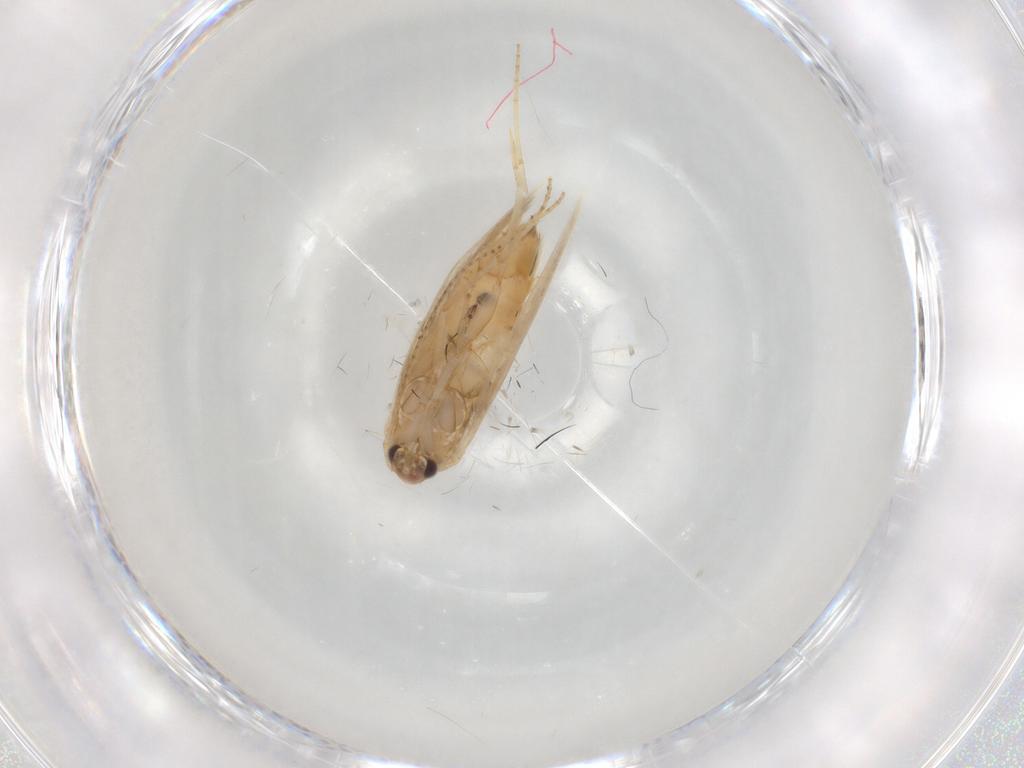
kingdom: Animalia
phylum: Arthropoda
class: Insecta
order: Lepidoptera
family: Bucculatricidae
